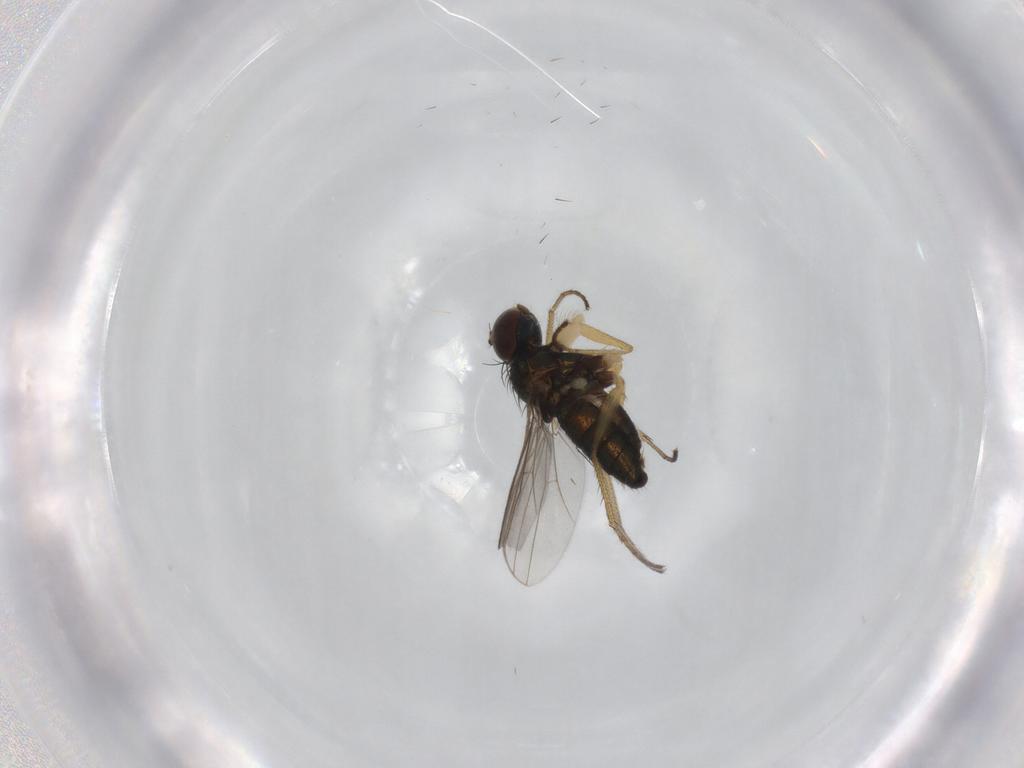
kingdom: Animalia
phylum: Arthropoda
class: Insecta
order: Diptera
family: Dolichopodidae
